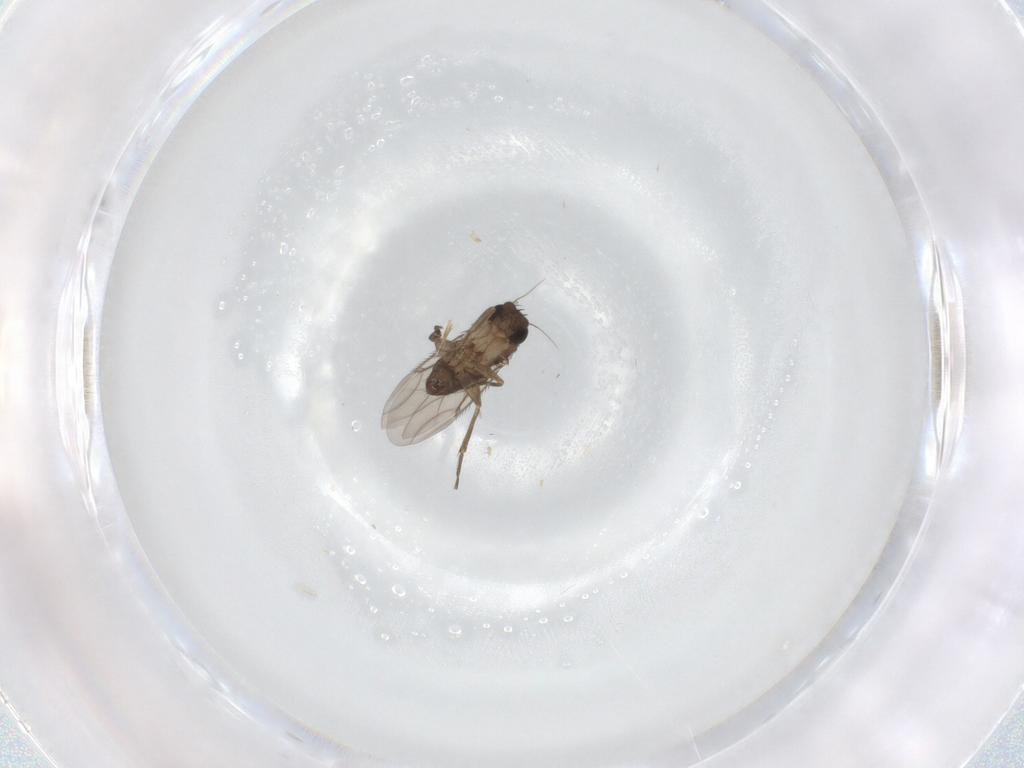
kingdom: Animalia
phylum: Arthropoda
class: Insecta
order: Diptera
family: Phoridae
